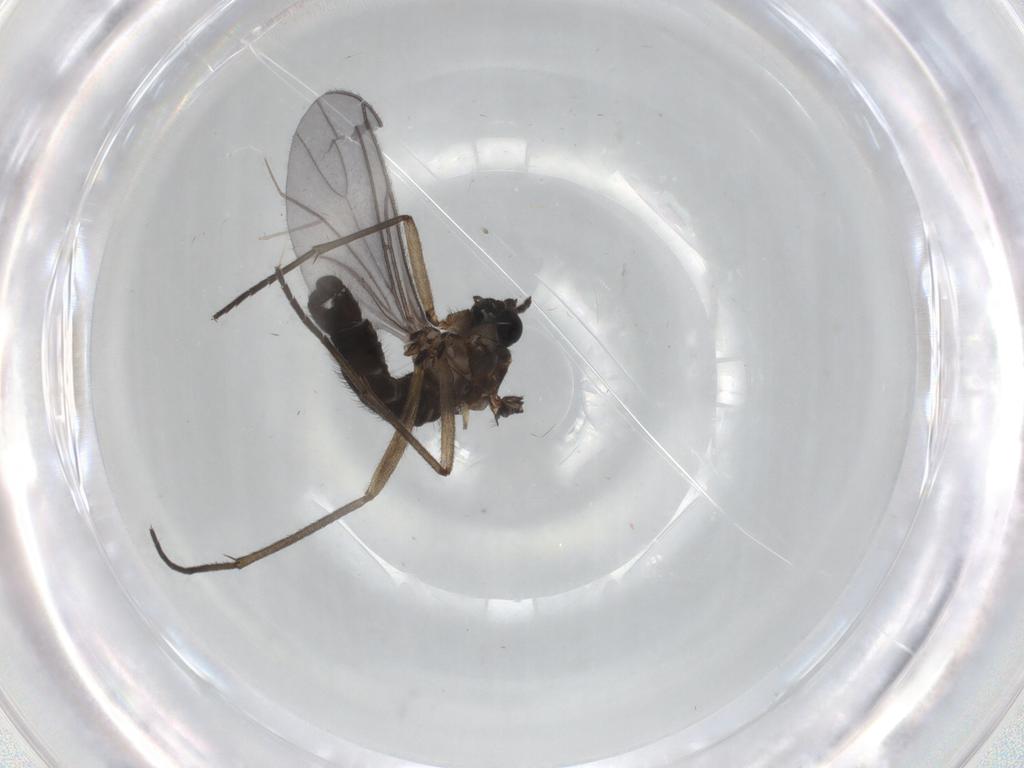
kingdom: Animalia
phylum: Arthropoda
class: Insecta
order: Diptera
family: Sciaridae
